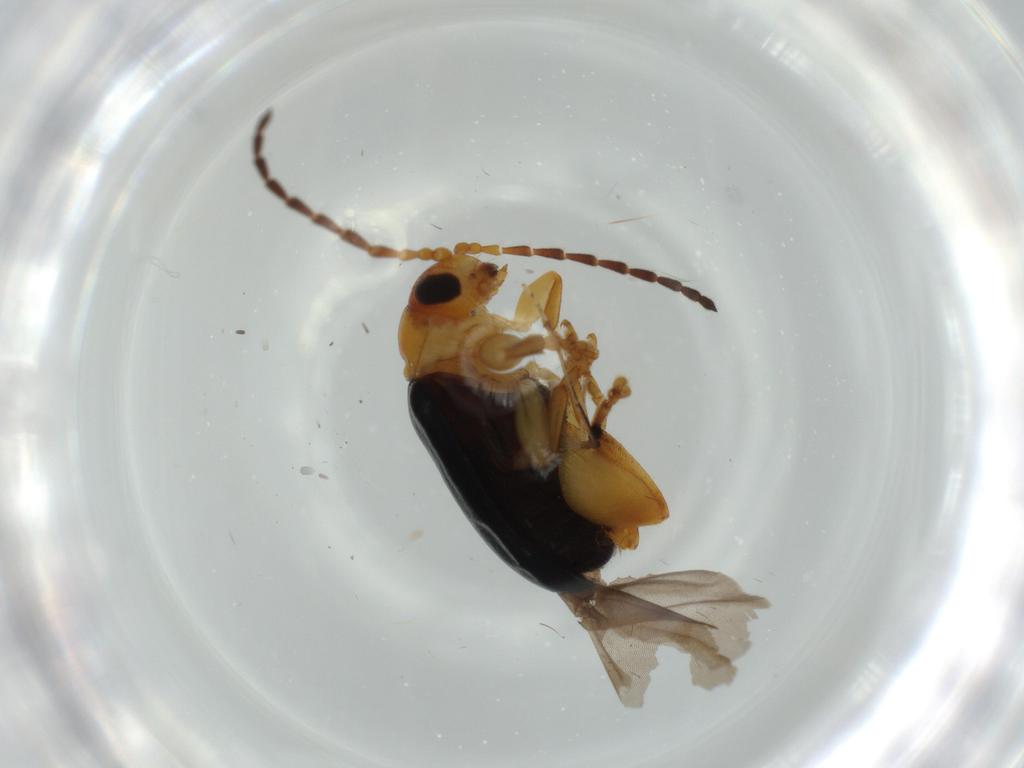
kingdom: Animalia
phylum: Arthropoda
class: Insecta
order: Coleoptera
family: Chrysomelidae
